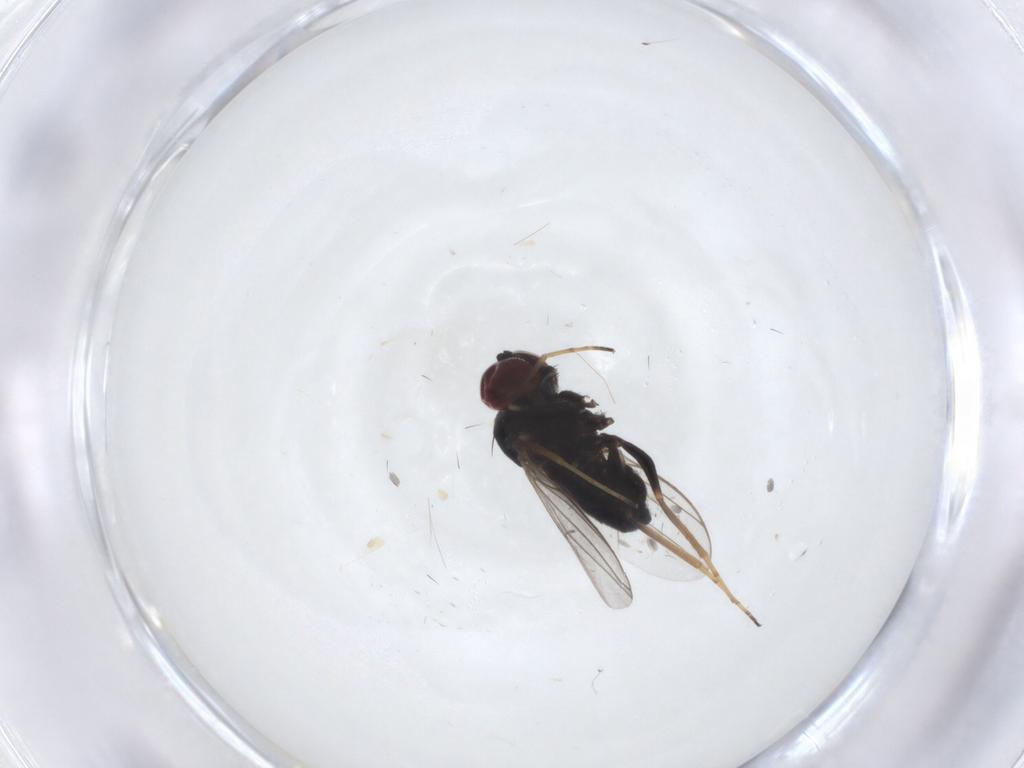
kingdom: Animalia
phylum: Arthropoda
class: Insecta
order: Diptera
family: Dolichopodidae
